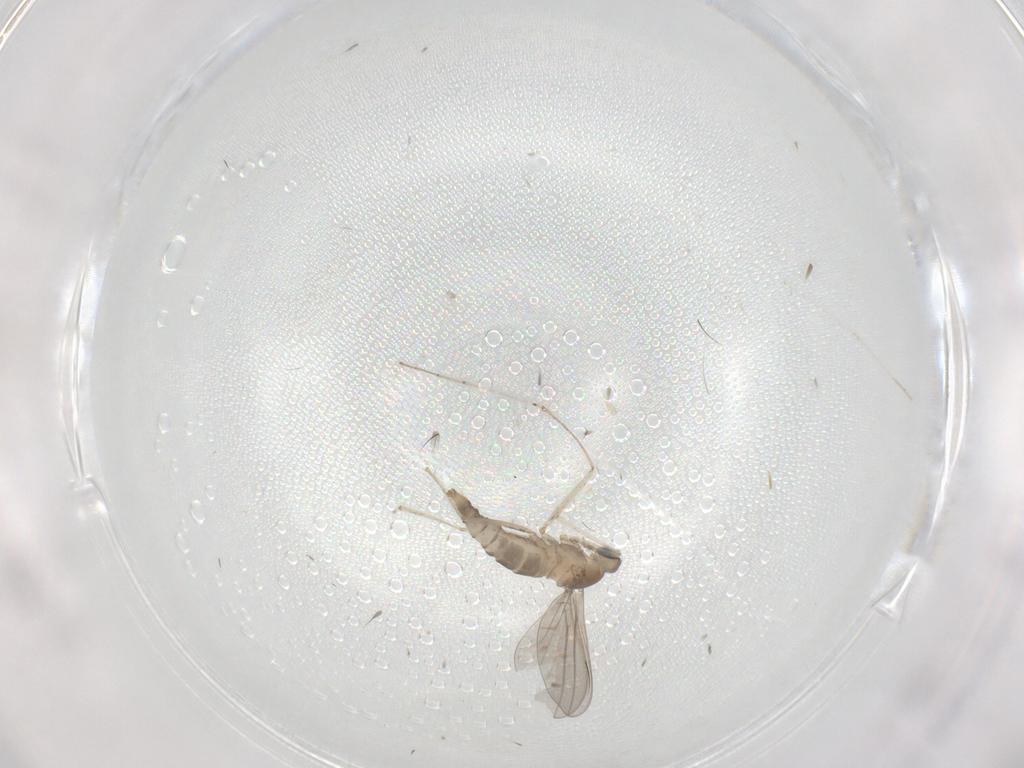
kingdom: Animalia
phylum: Arthropoda
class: Insecta
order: Diptera
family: Cecidomyiidae
